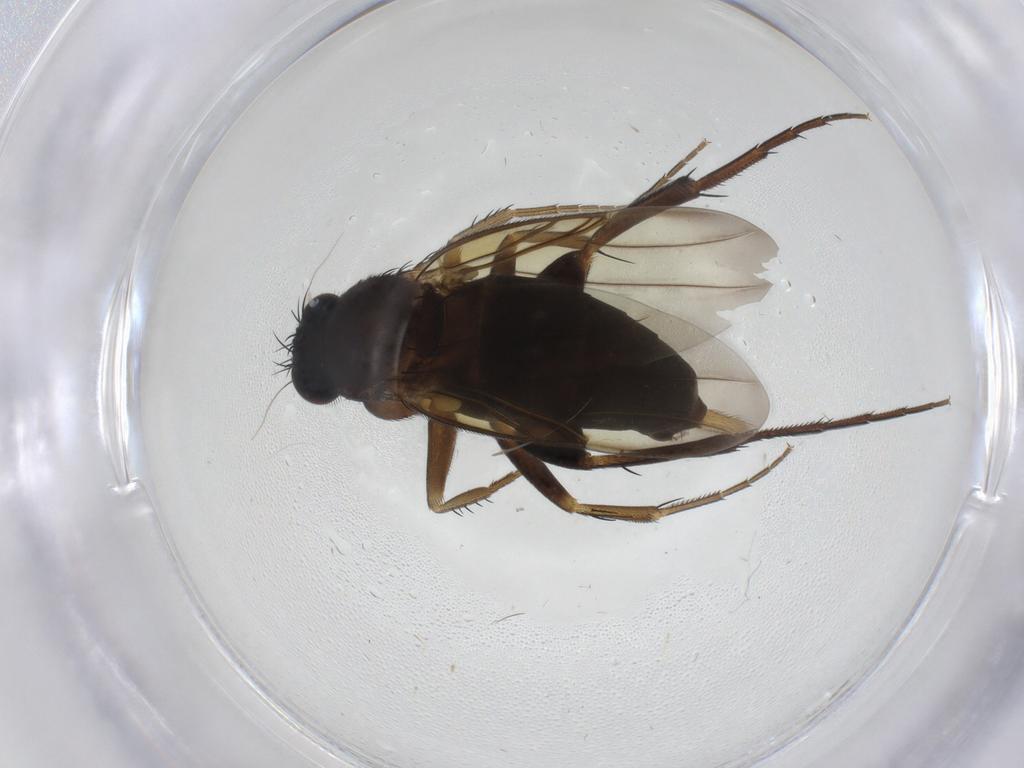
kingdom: Animalia
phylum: Arthropoda
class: Insecta
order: Diptera
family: Phoridae
